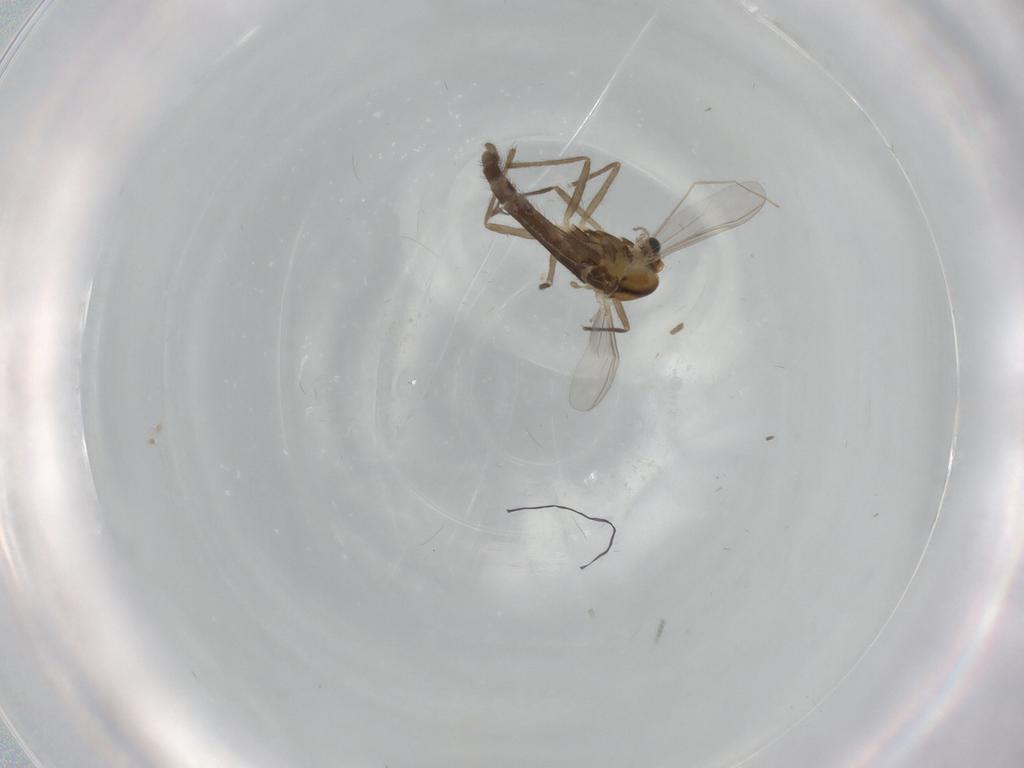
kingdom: Animalia
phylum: Arthropoda
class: Insecta
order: Diptera
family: Chironomidae
